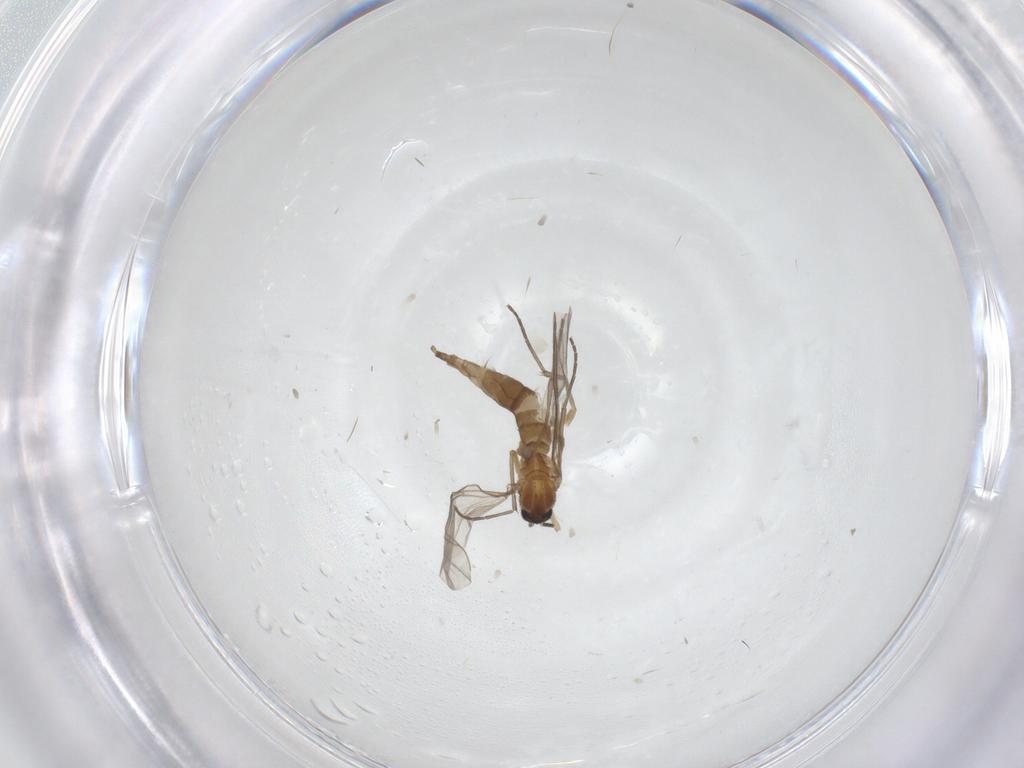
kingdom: Animalia
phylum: Arthropoda
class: Insecta
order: Diptera
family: Sciaridae
